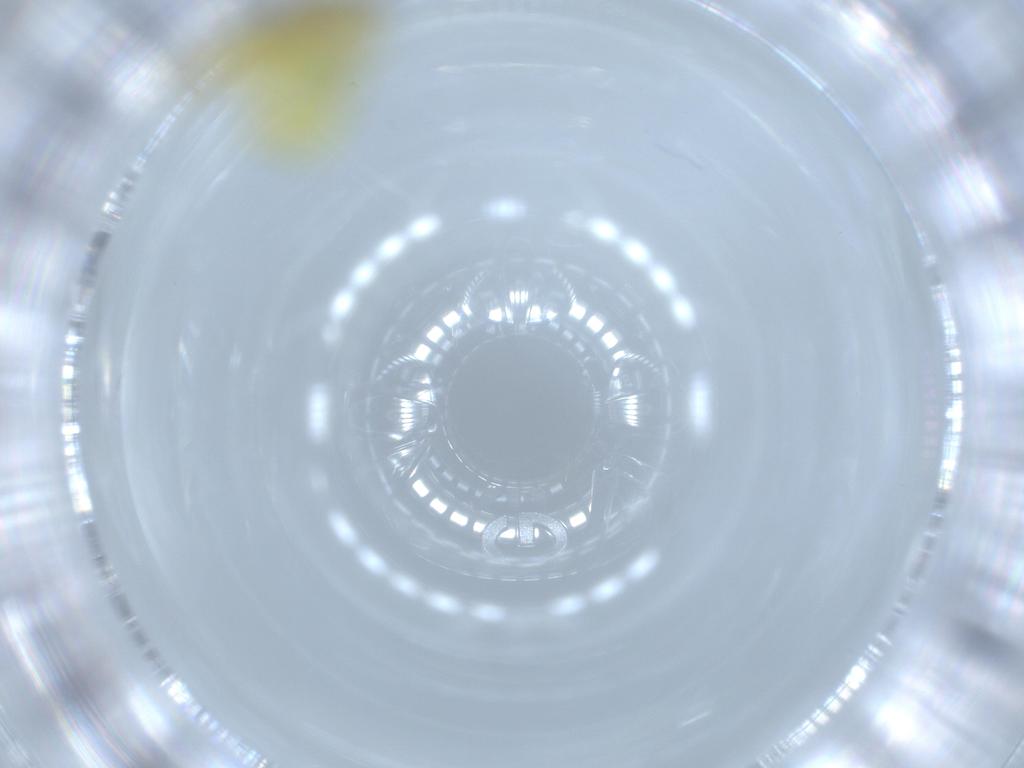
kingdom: Animalia
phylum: Arthropoda
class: Insecta
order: Hemiptera
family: Cicadellidae
